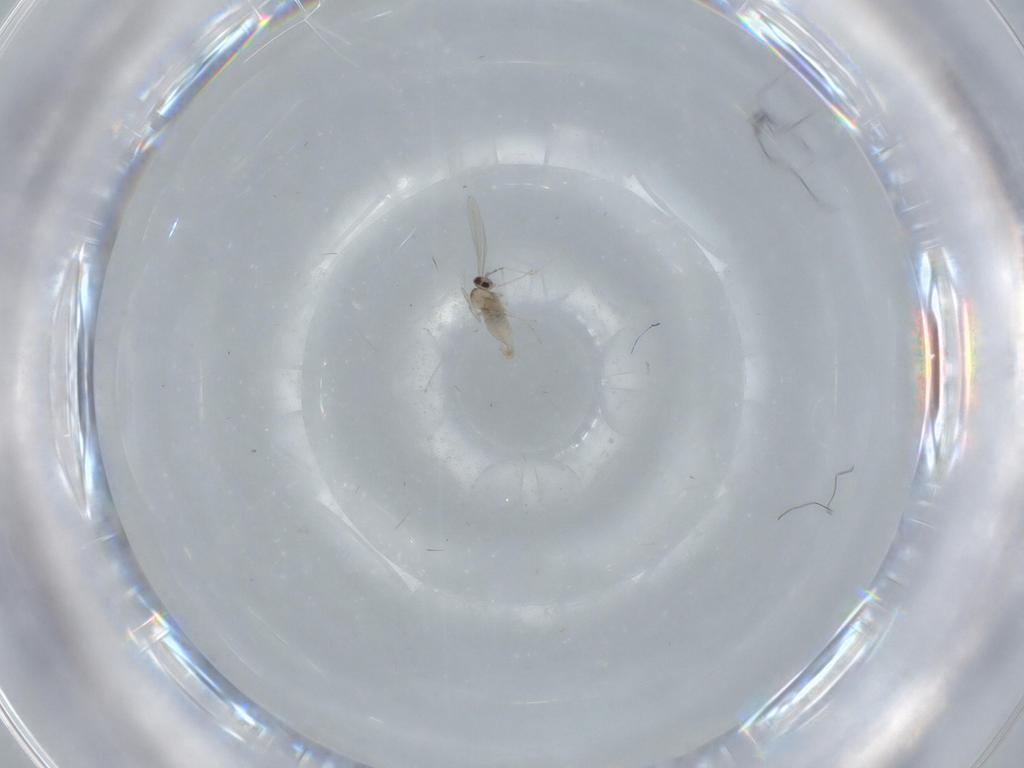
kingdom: Animalia
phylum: Arthropoda
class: Insecta
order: Diptera
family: Cecidomyiidae
